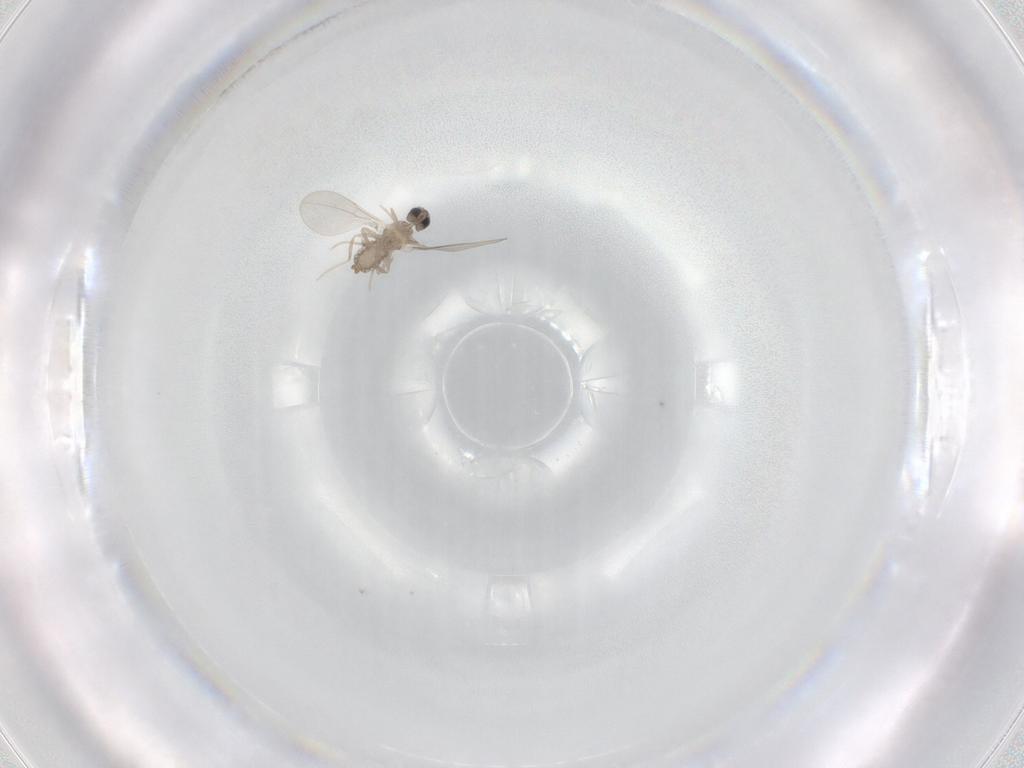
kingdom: Animalia
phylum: Arthropoda
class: Insecta
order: Diptera
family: Cecidomyiidae
